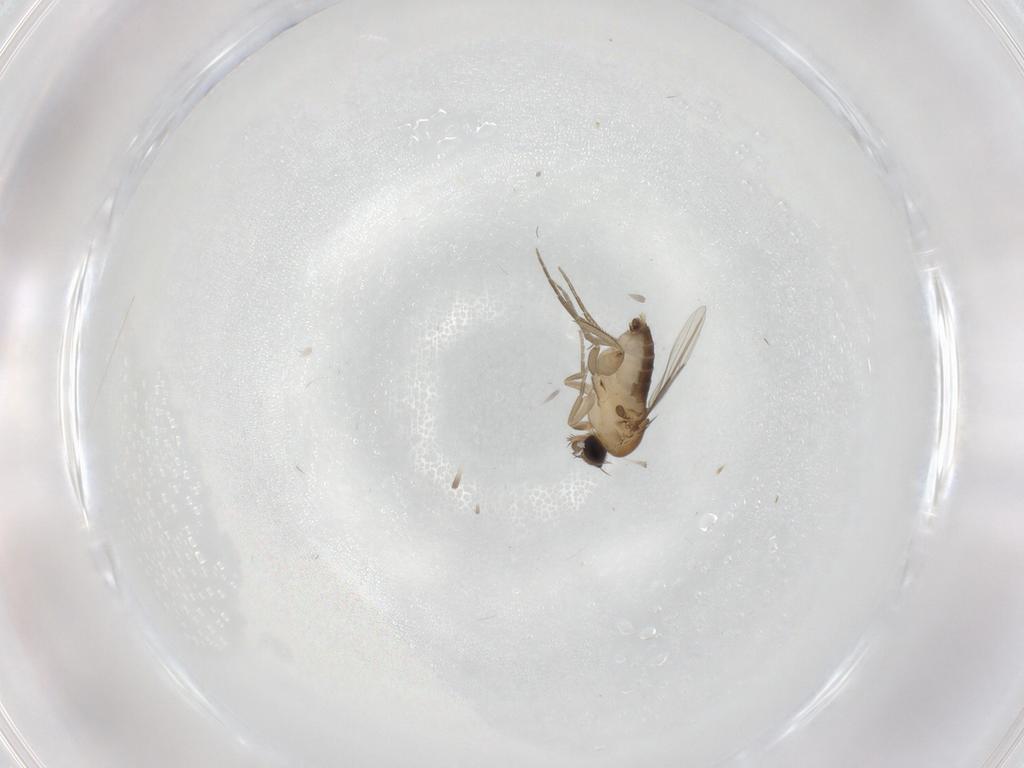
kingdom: Animalia
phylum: Arthropoda
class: Insecta
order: Diptera
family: Phoridae
